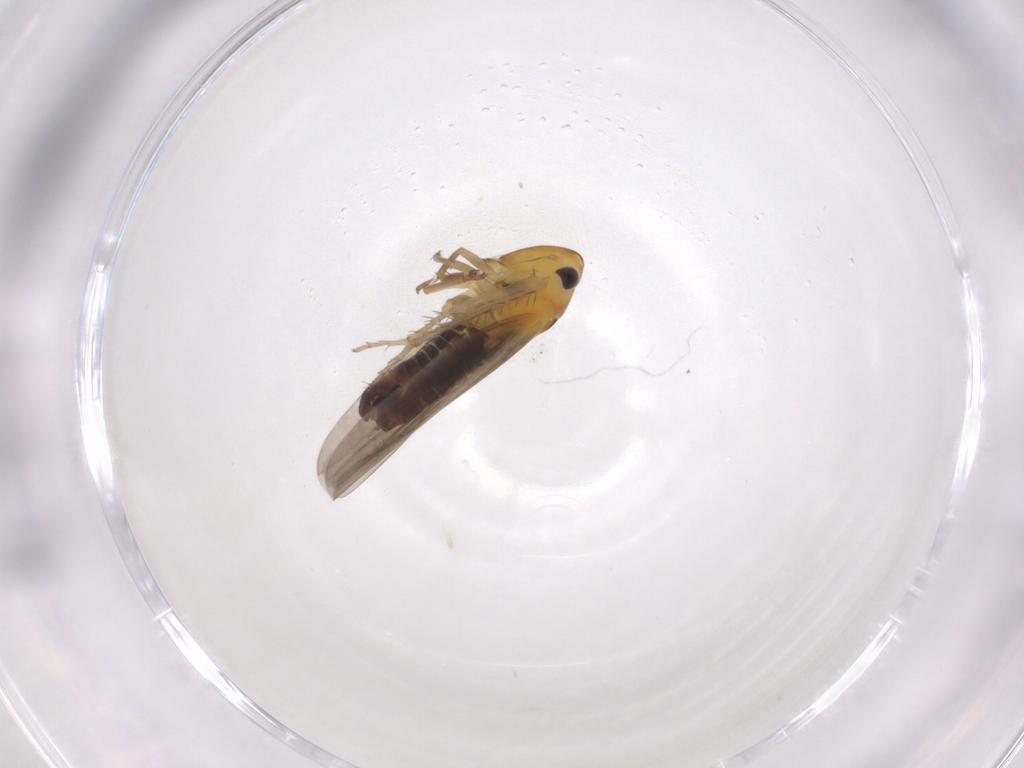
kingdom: Animalia
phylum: Arthropoda
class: Insecta
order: Hemiptera
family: Cicadellidae
